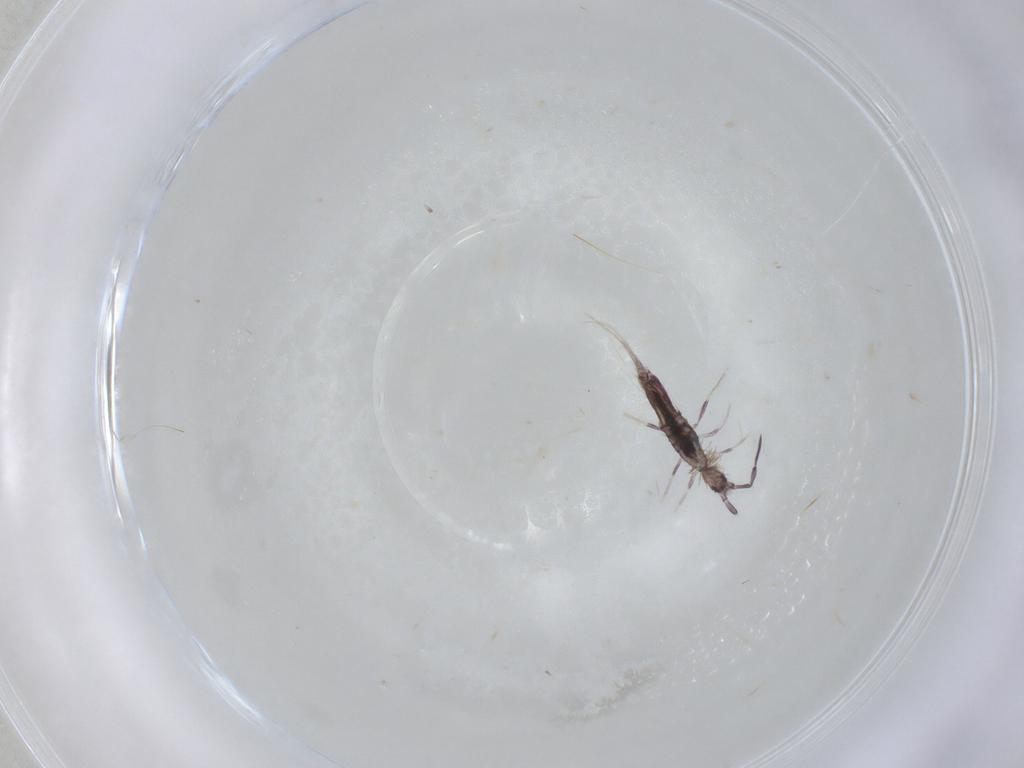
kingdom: Animalia
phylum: Arthropoda
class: Collembola
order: Entomobryomorpha
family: Entomobryidae
